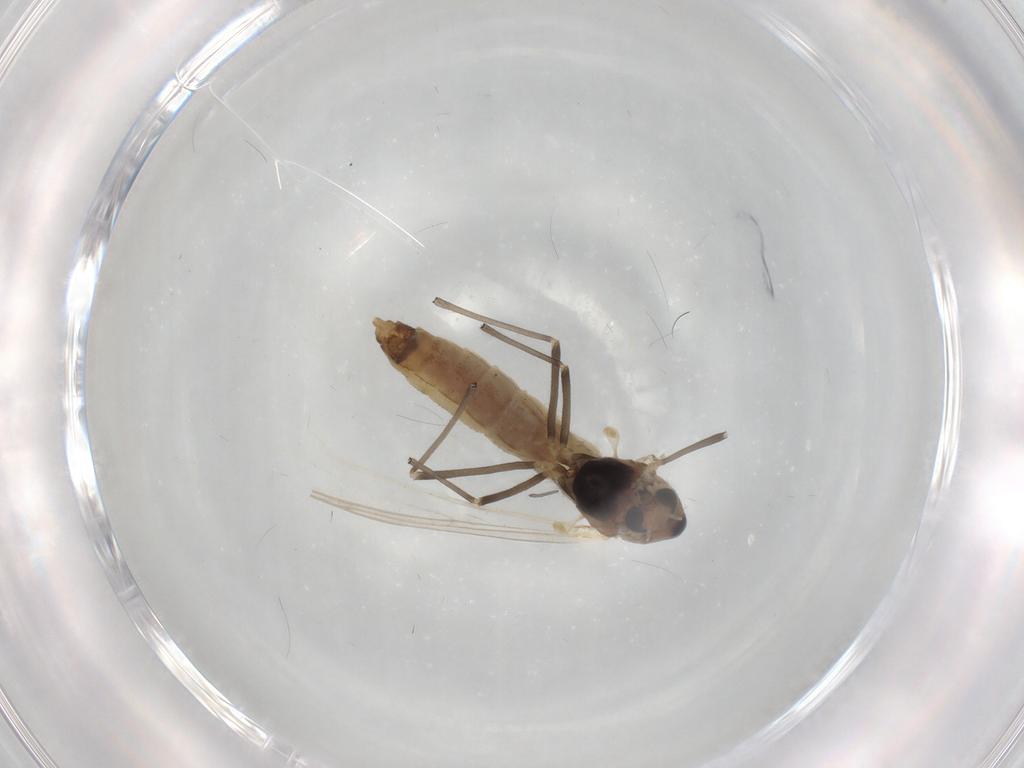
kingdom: Animalia
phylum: Arthropoda
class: Insecta
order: Diptera
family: Chironomidae
